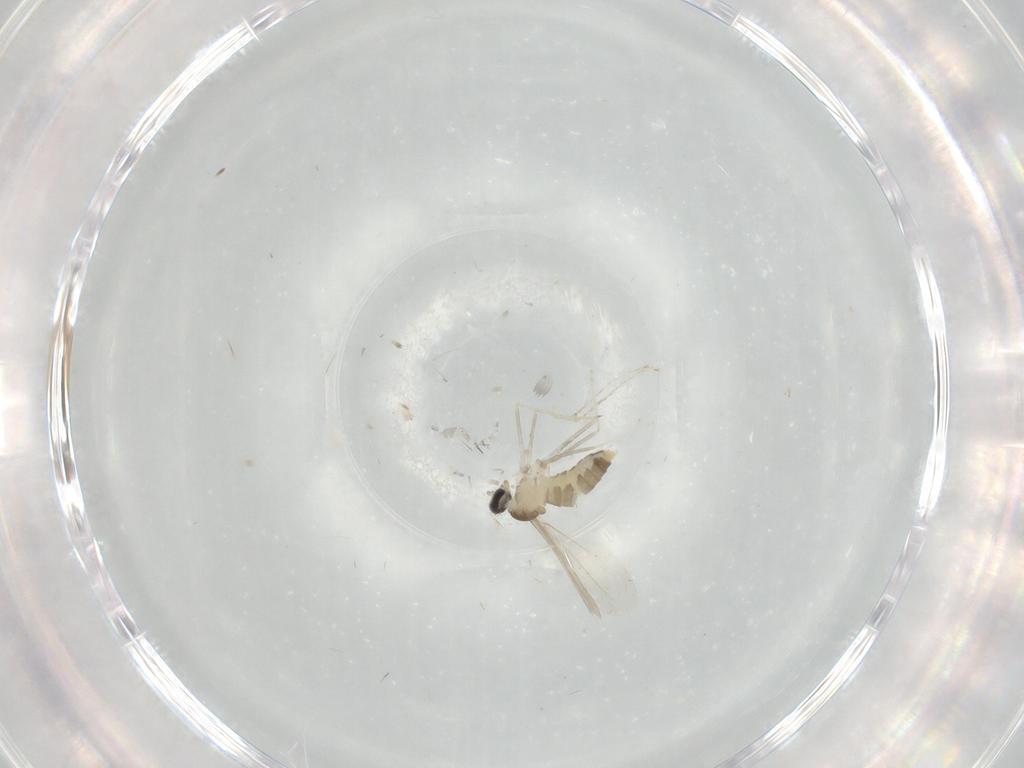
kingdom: Animalia
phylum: Arthropoda
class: Insecta
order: Diptera
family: Cecidomyiidae
